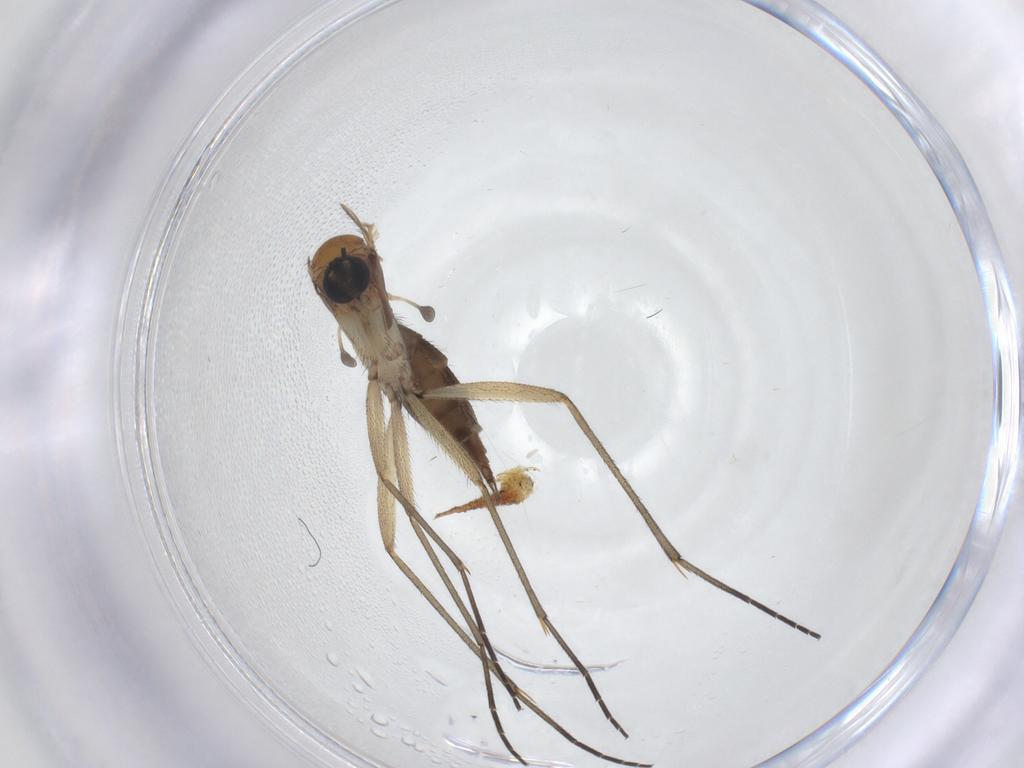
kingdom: Animalia
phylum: Arthropoda
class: Insecta
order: Diptera
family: Sciaridae
